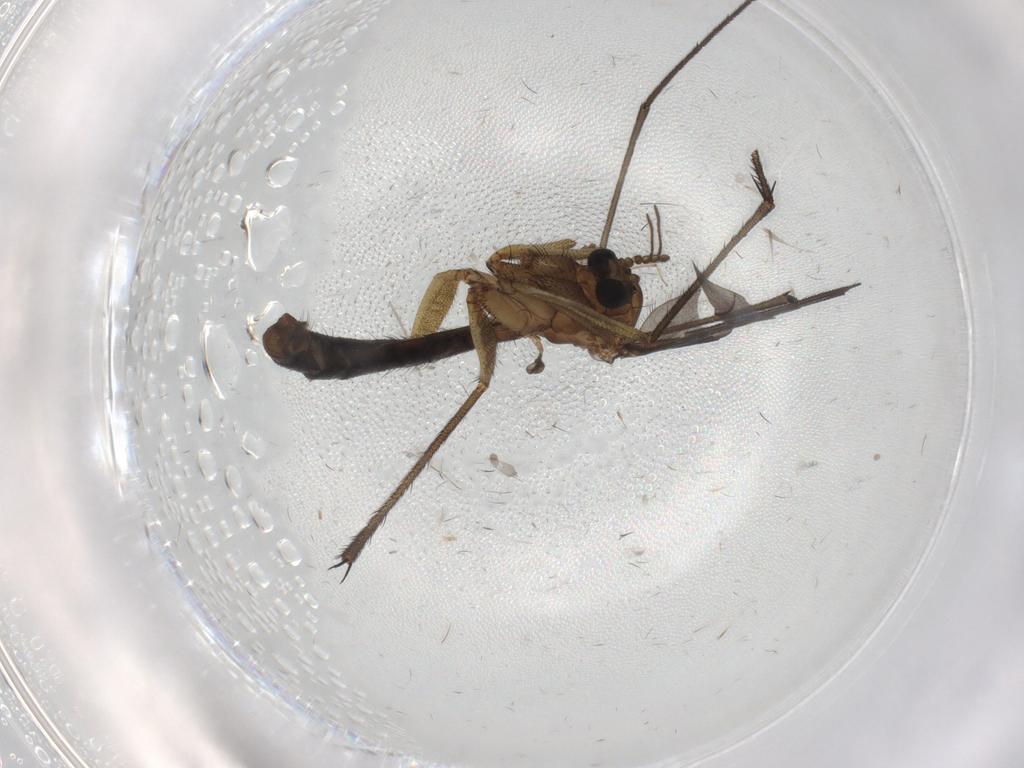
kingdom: Animalia
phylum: Arthropoda
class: Insecta
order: Diptera
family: Ditomyiidae
